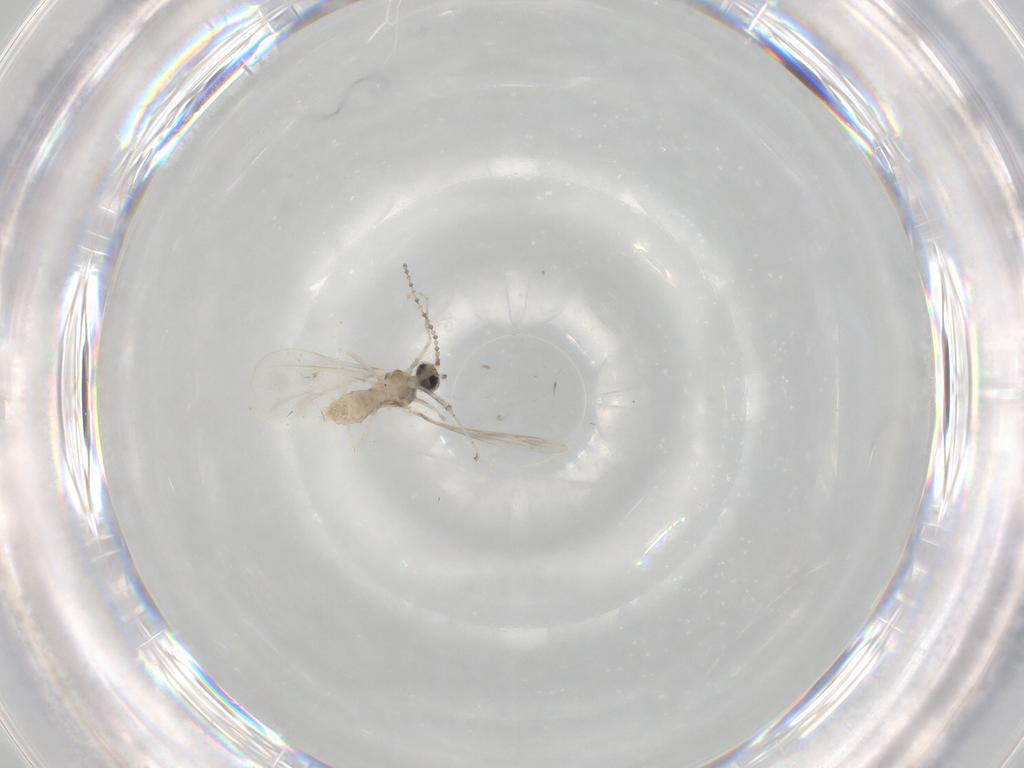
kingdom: Animalia
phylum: Arthropoda
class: Insecta
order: Diptera
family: Cecidomyiidae
